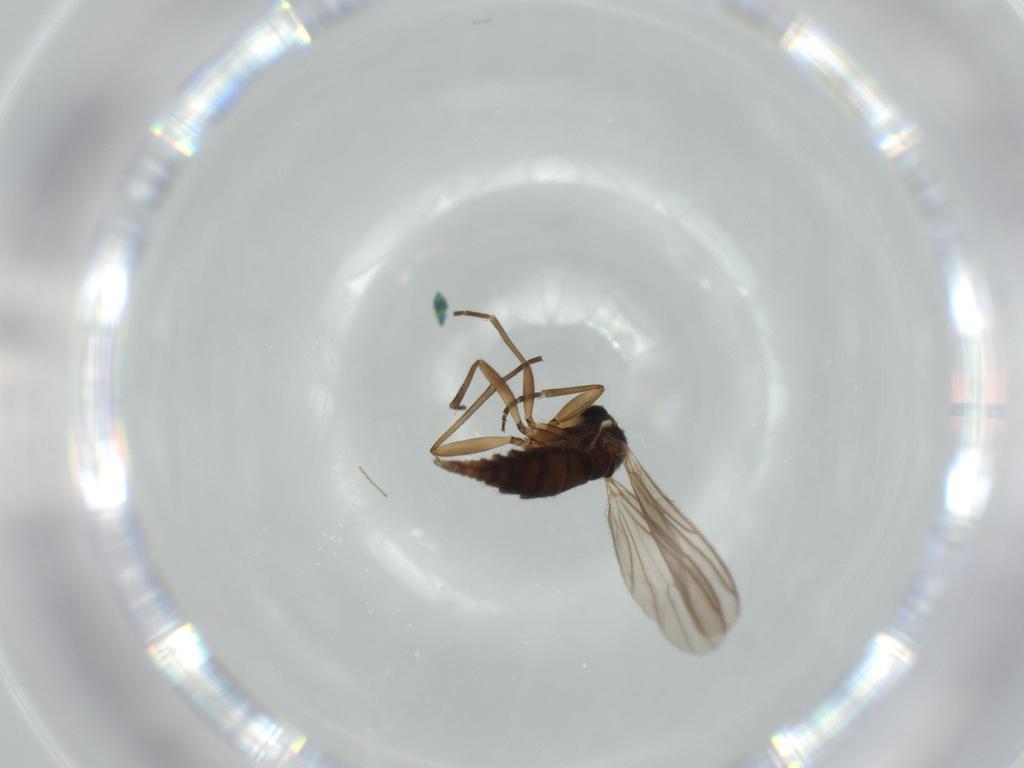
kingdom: Animalia
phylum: Arthropoda
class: Insecta
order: Diptera
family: Sciaridae
